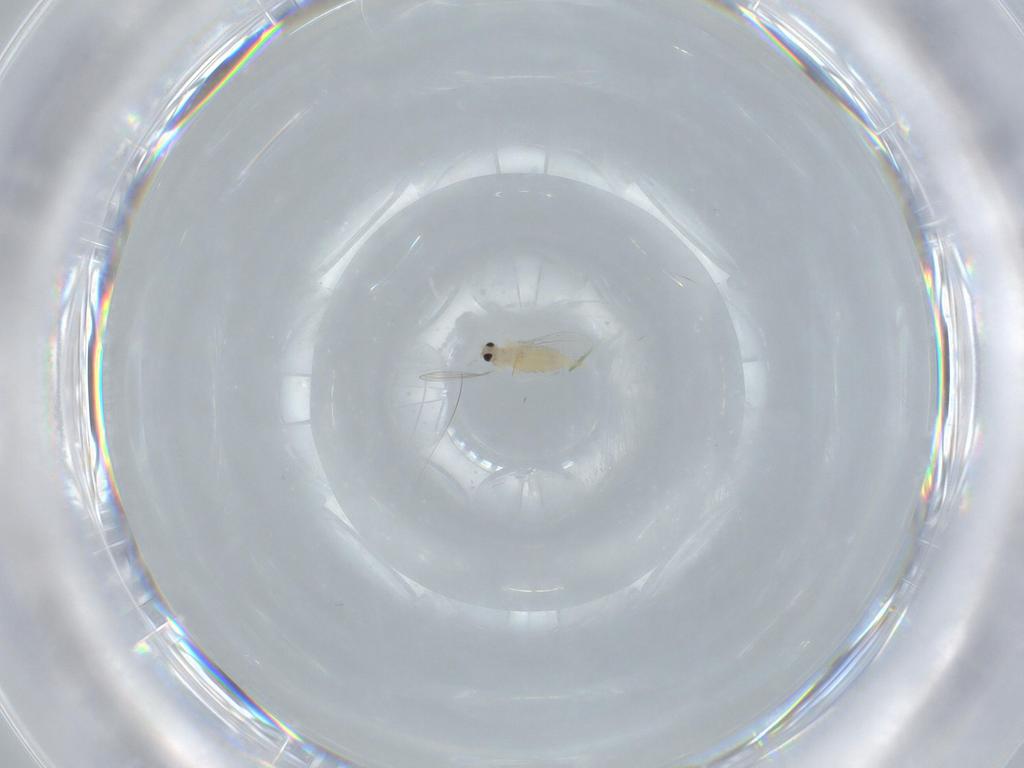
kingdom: Animalia
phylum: Arthropoda
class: Insecta
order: Diptera
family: Cecidomyiidae
